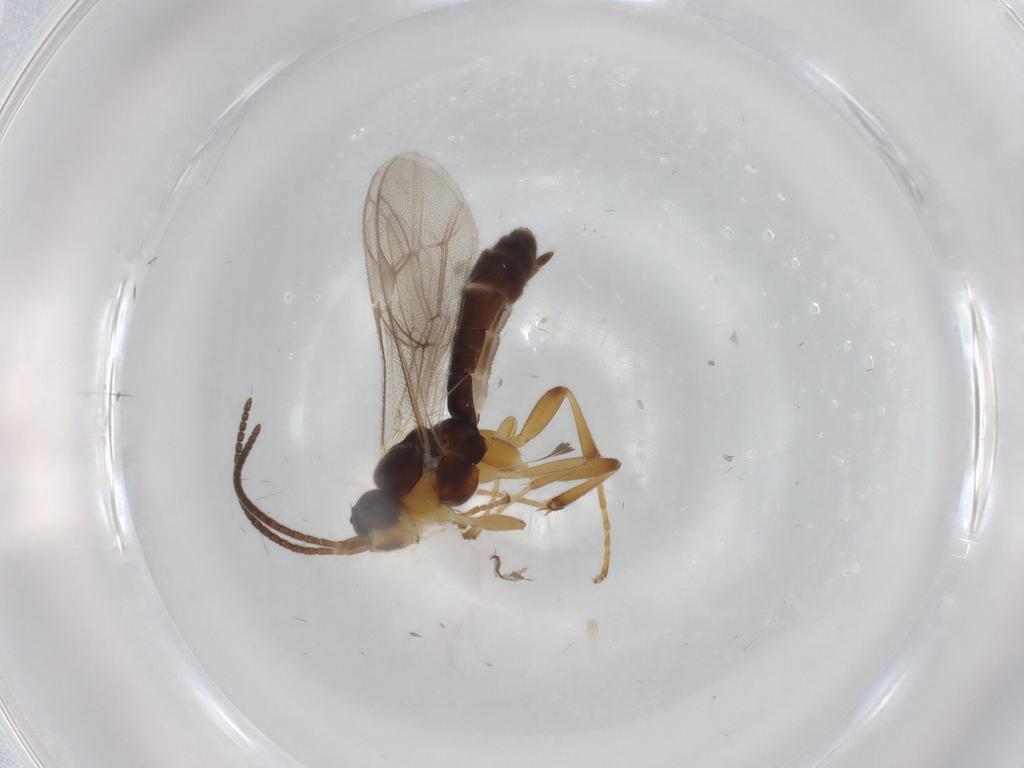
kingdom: Animalia
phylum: Arthropoda
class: Insecta
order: Hymenoptera
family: Ichneumonidae
